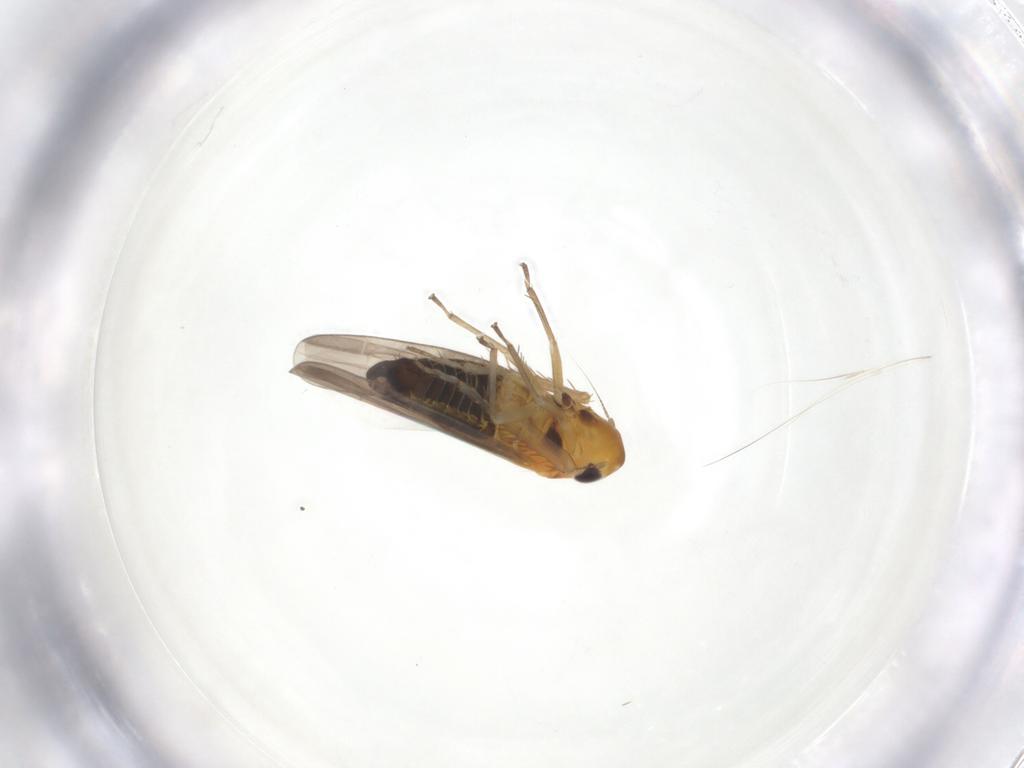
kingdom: Animalia
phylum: Arthropoda
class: Insecta
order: Hemiptera
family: Cicadellidae
